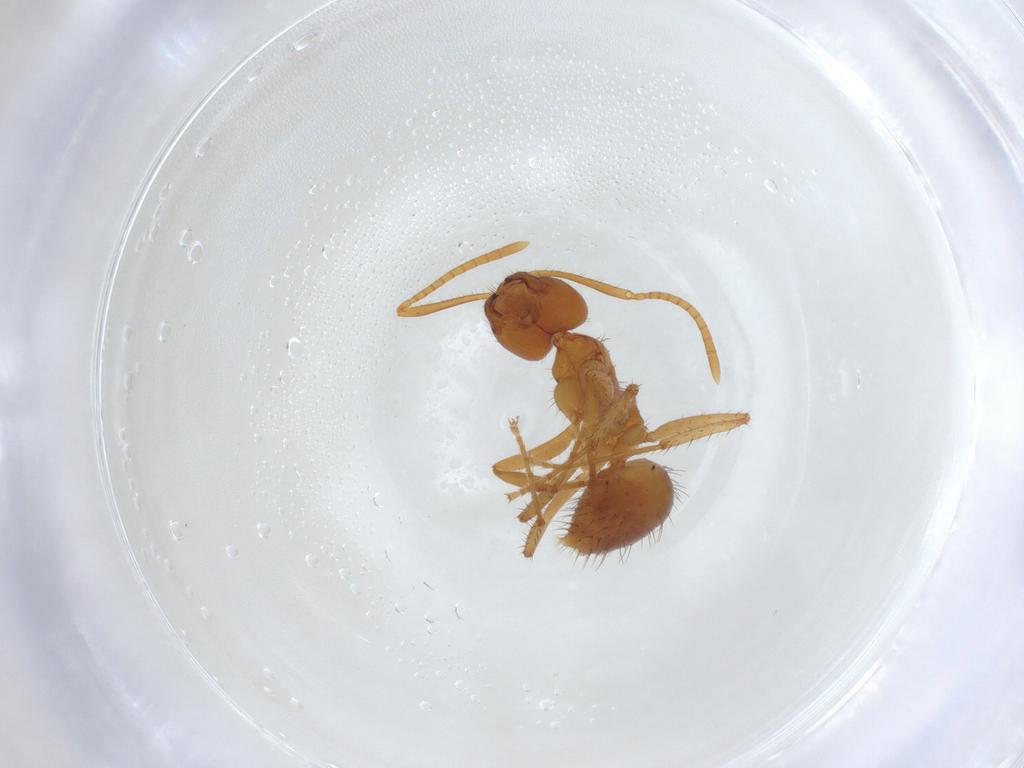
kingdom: Animalia
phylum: Arthropoda
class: Insecta
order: Hymenoptera
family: Formicidae
